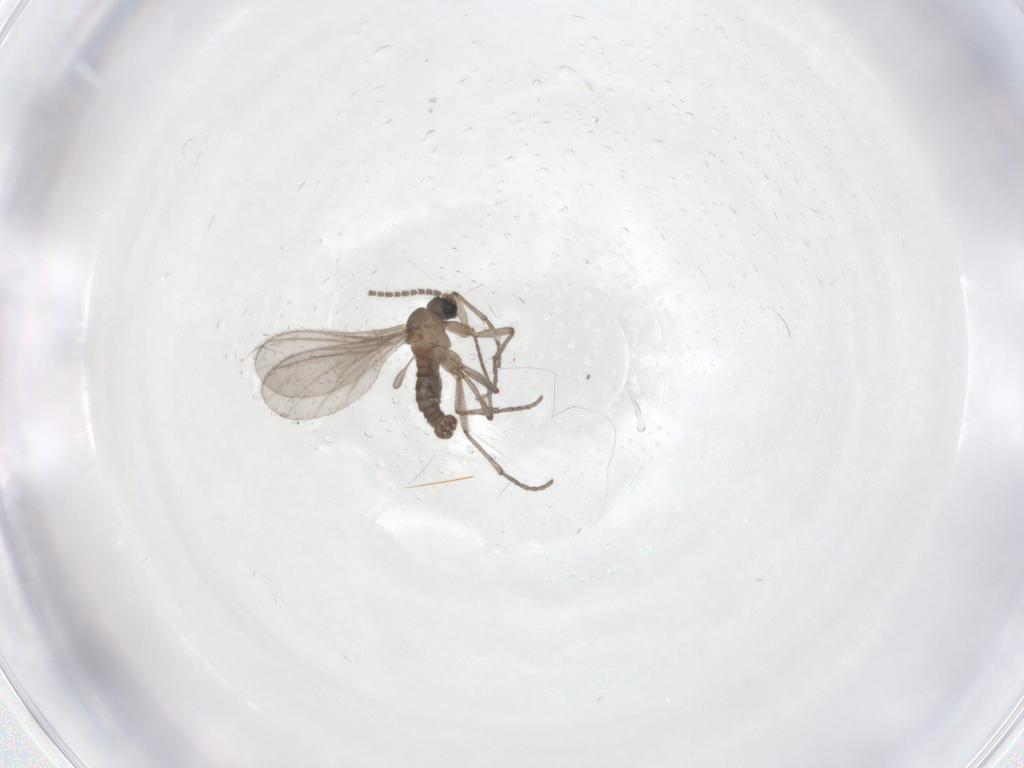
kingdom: Animalia
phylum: Arthropoda
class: Insecta
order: Diptera
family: Sciaridae
